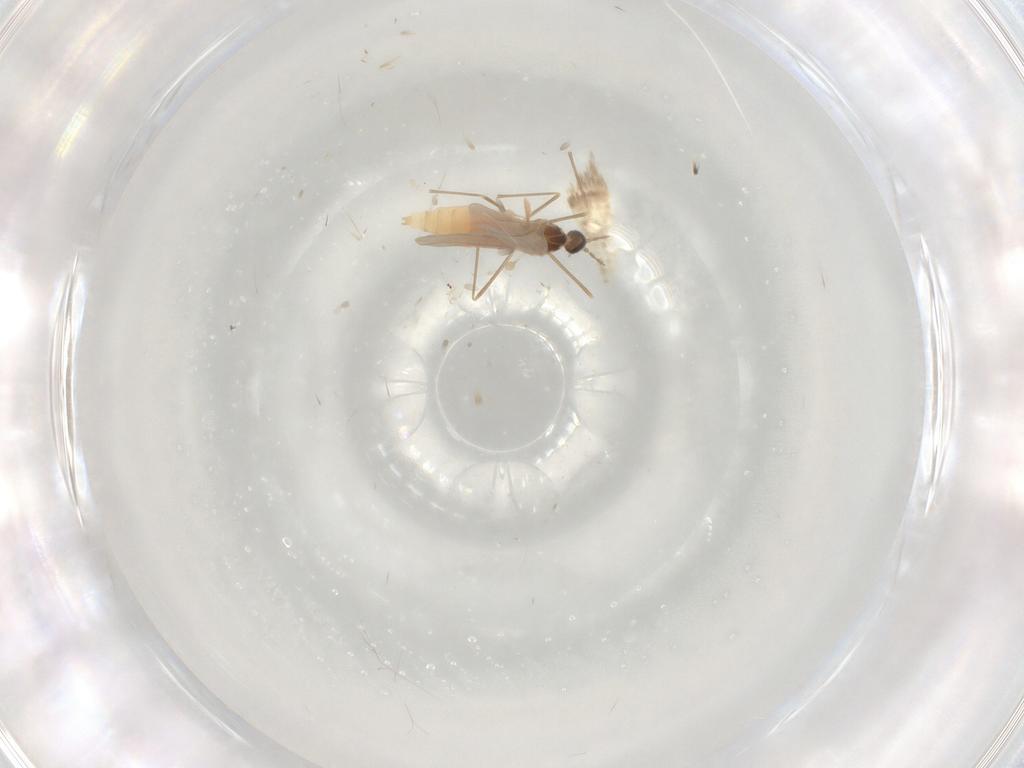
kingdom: Animalia
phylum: Arthropoda
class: Insecta
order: Diptera
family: Cecidomyiidae
